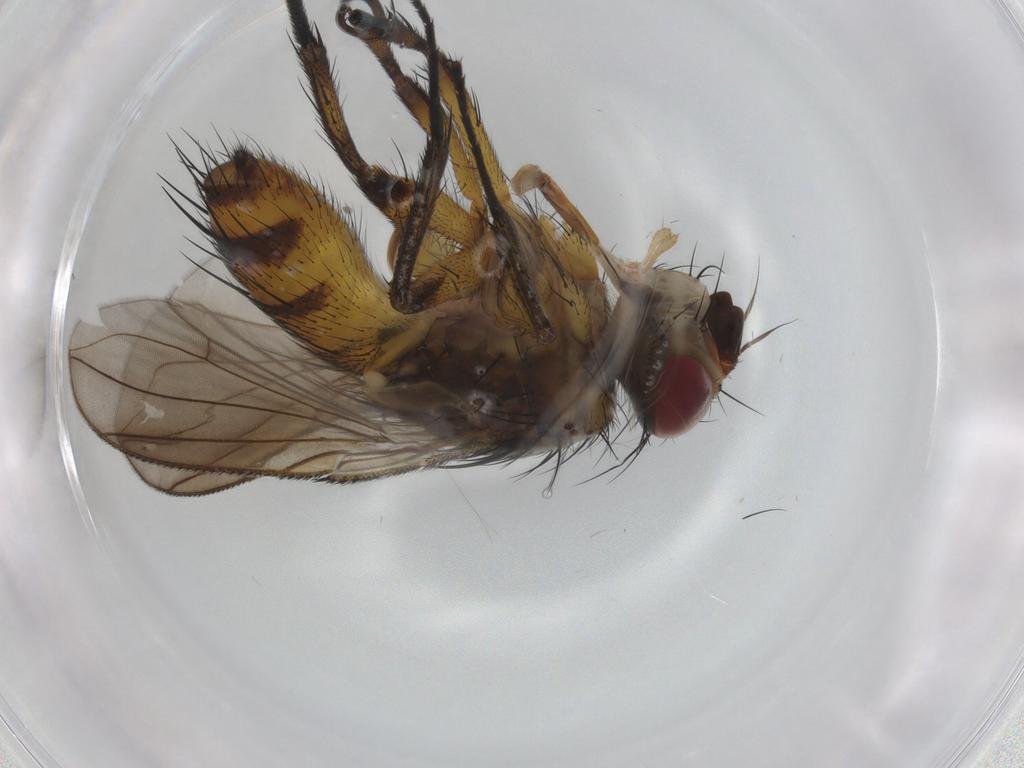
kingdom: Animalia
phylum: Arthropoda
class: Insecta
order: Diptera
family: Tachinidae
